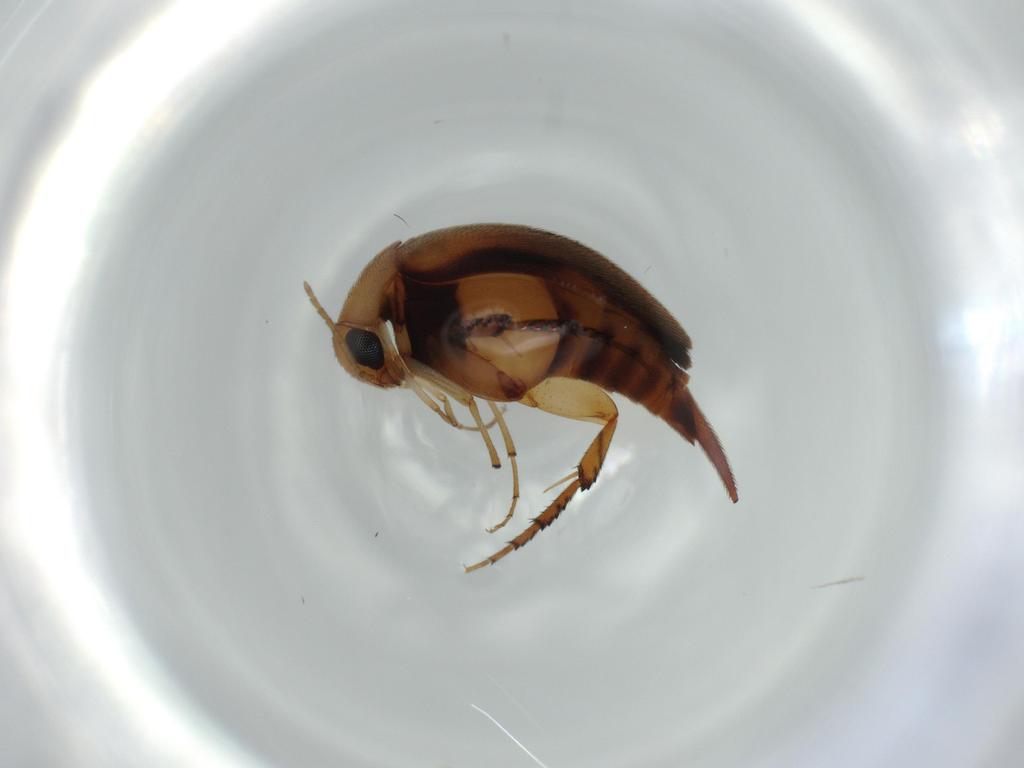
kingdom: Animalia
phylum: Arthropoda
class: Insecta
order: Coleoptera
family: Mordellidae
